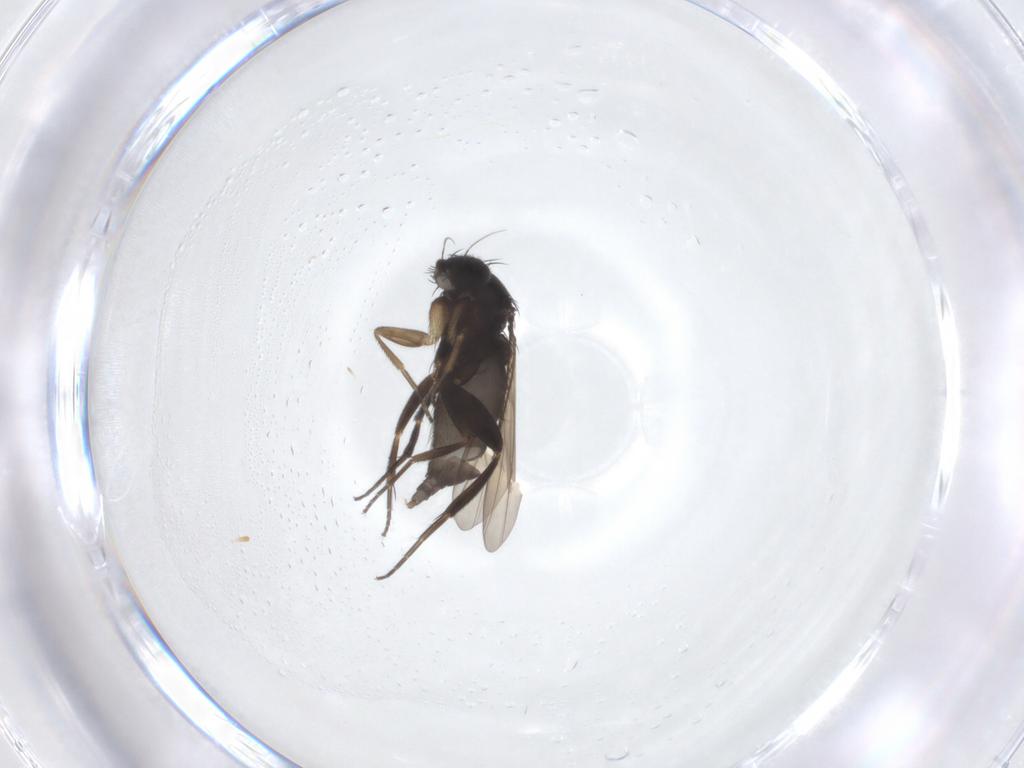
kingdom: Animalia
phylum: Arthropoda
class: Insecta
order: Diptera
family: Phoridae
